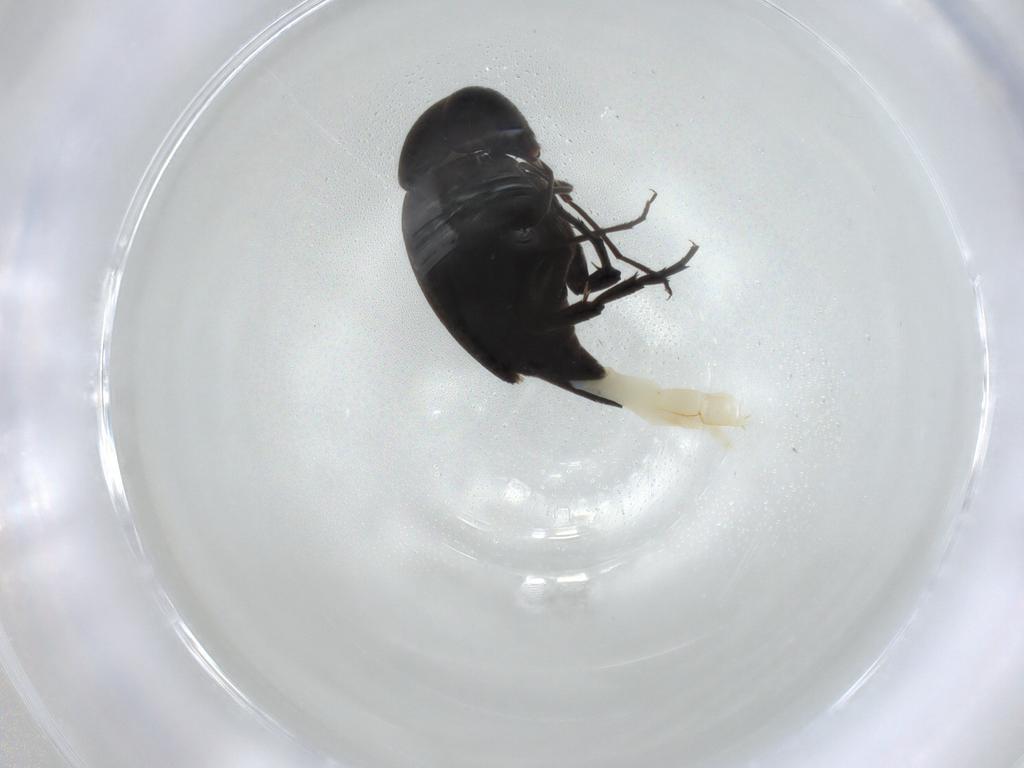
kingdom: Animalia
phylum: Arthropoda
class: Insecta
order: Coleoptera
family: Mordellidae
